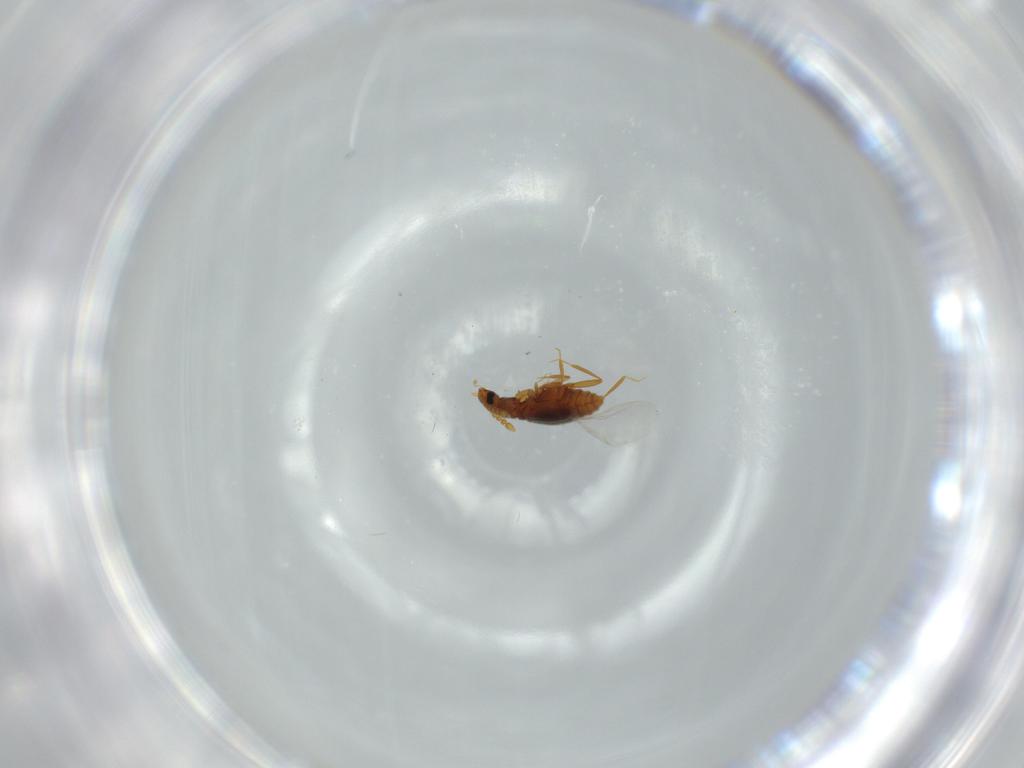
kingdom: Animalia
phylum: Arthropoda
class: Insecta
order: Coleoptera
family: Staphylinidae
